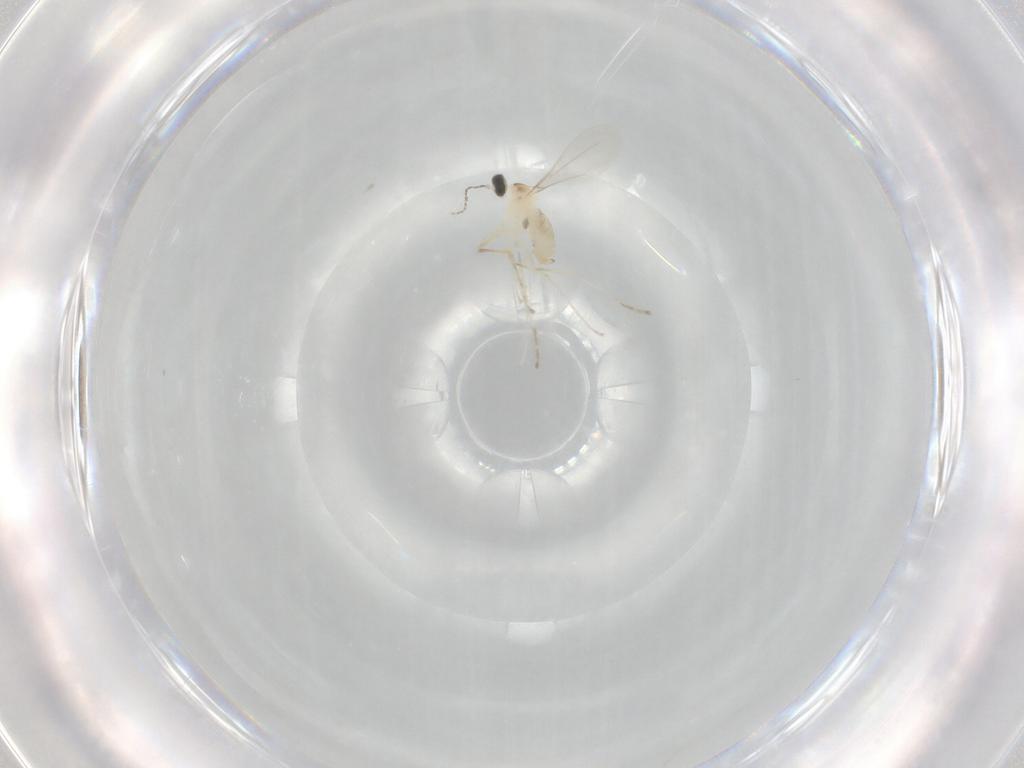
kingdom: Animalia
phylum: Arthropoda
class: Insecta
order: Diptera
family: Cecidomyiidae
